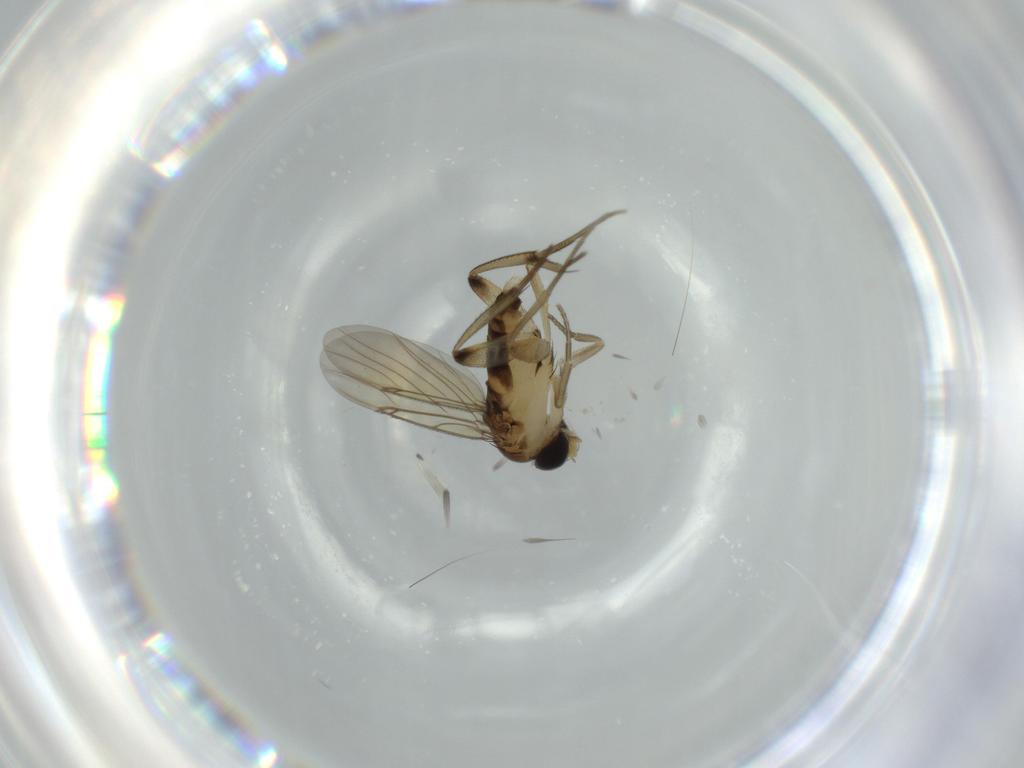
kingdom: Animalia
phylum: Arthropoda
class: Insecta
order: Diptera
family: Phoridae
